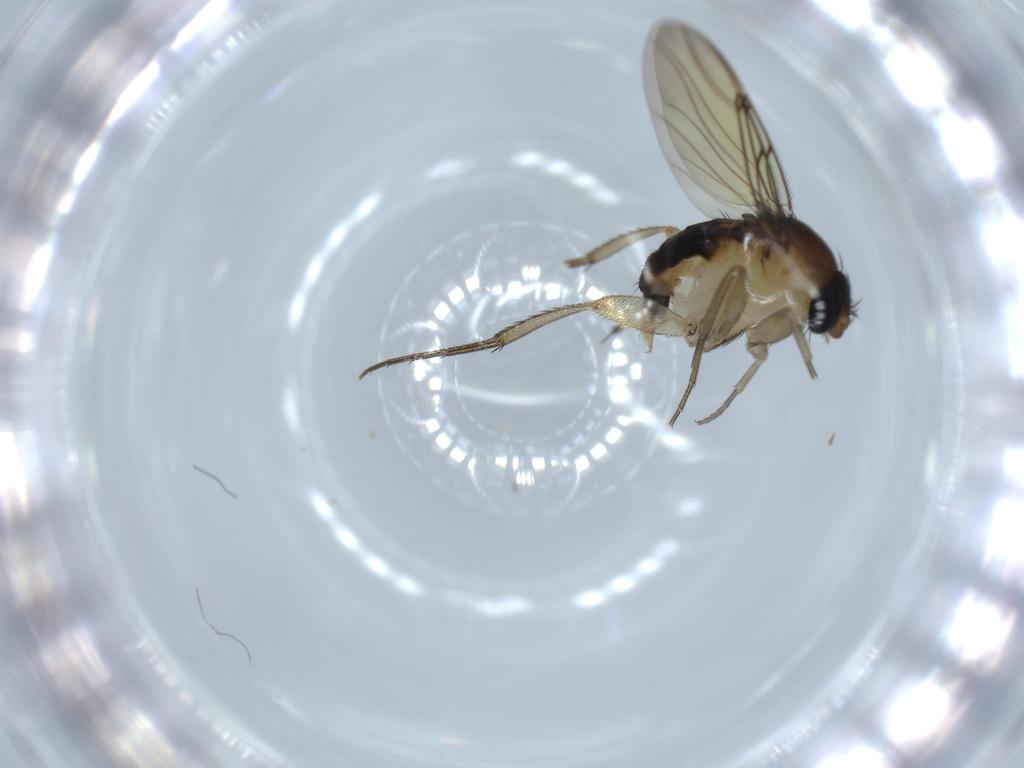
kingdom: Animalia
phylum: Arthropoda
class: Insecta
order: Diptera
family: Phoridae
